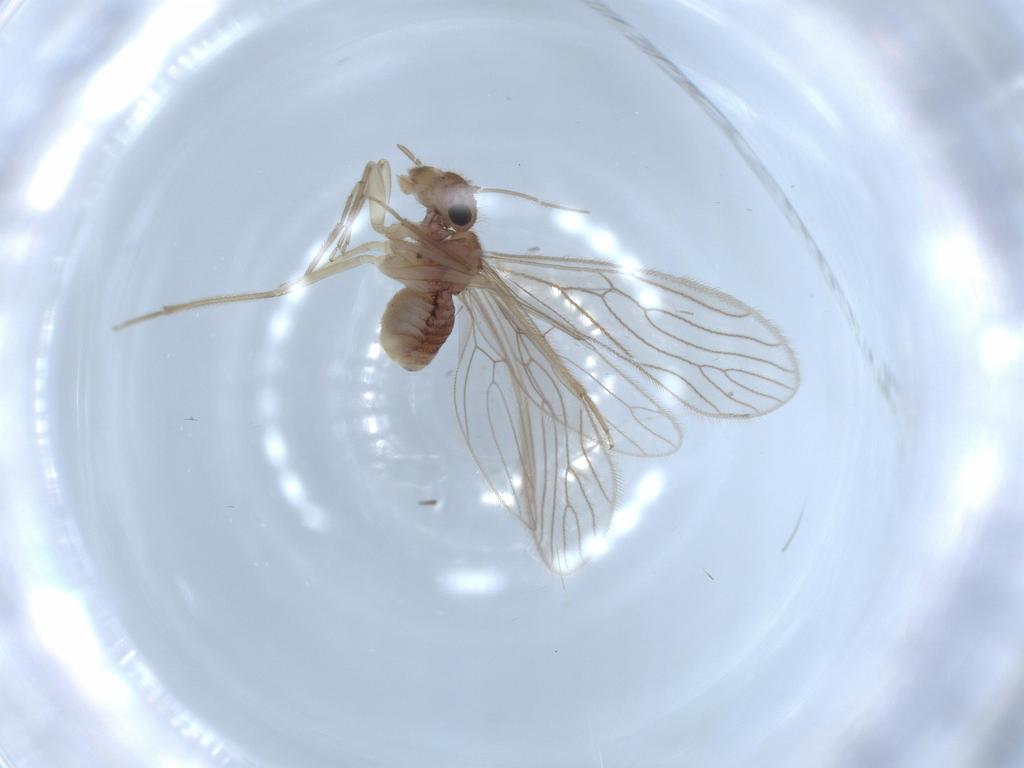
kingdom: Animalia
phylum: Arthropoda
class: Insecta
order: Psocodea
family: Cladiopsocidae
